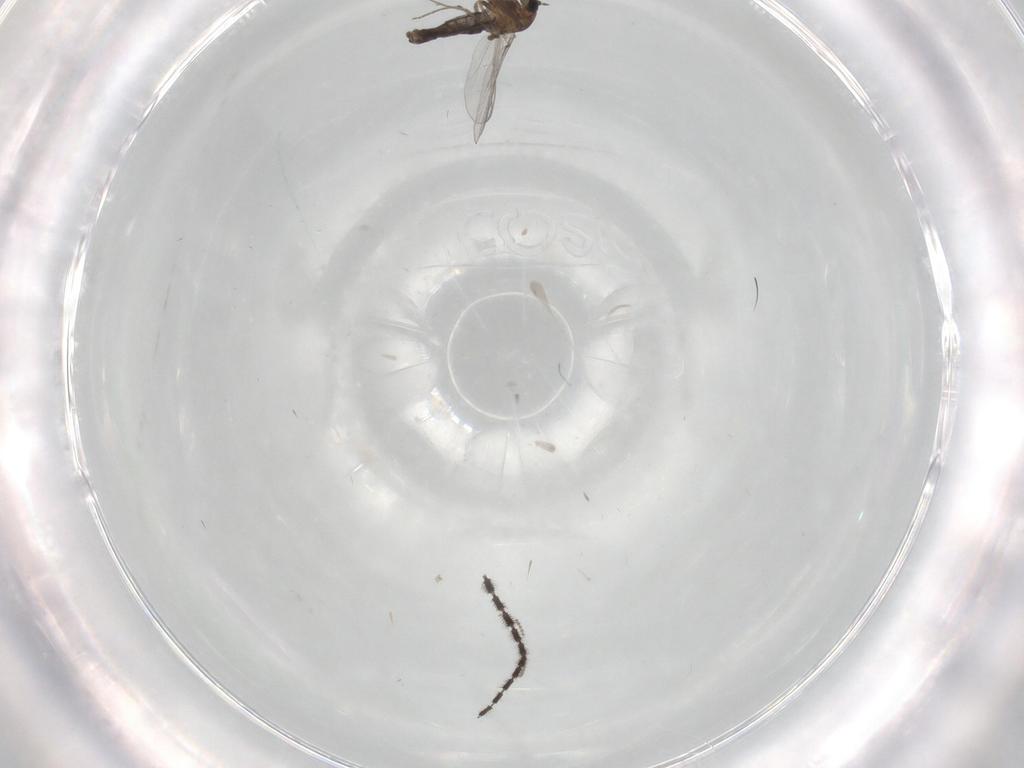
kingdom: Animalia
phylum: Arthropoda
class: Insecta
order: Diptera
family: Chironomidae
